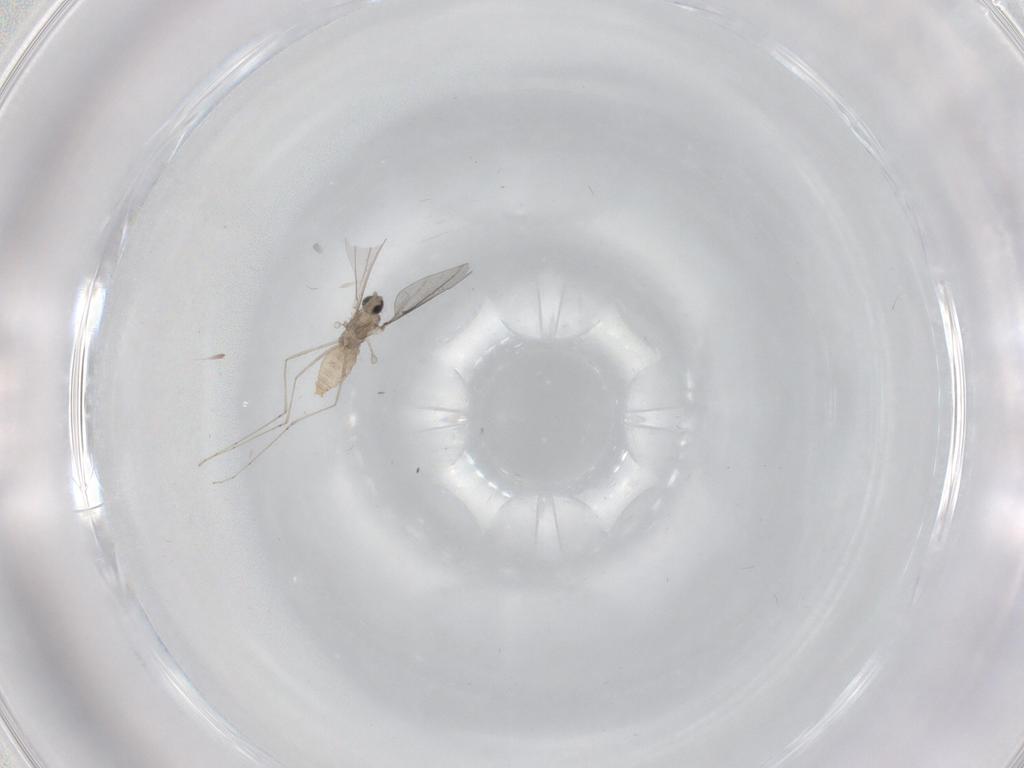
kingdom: Animalia
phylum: Arthropoda
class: Insecta
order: Diptera
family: Cecidomyiidae
